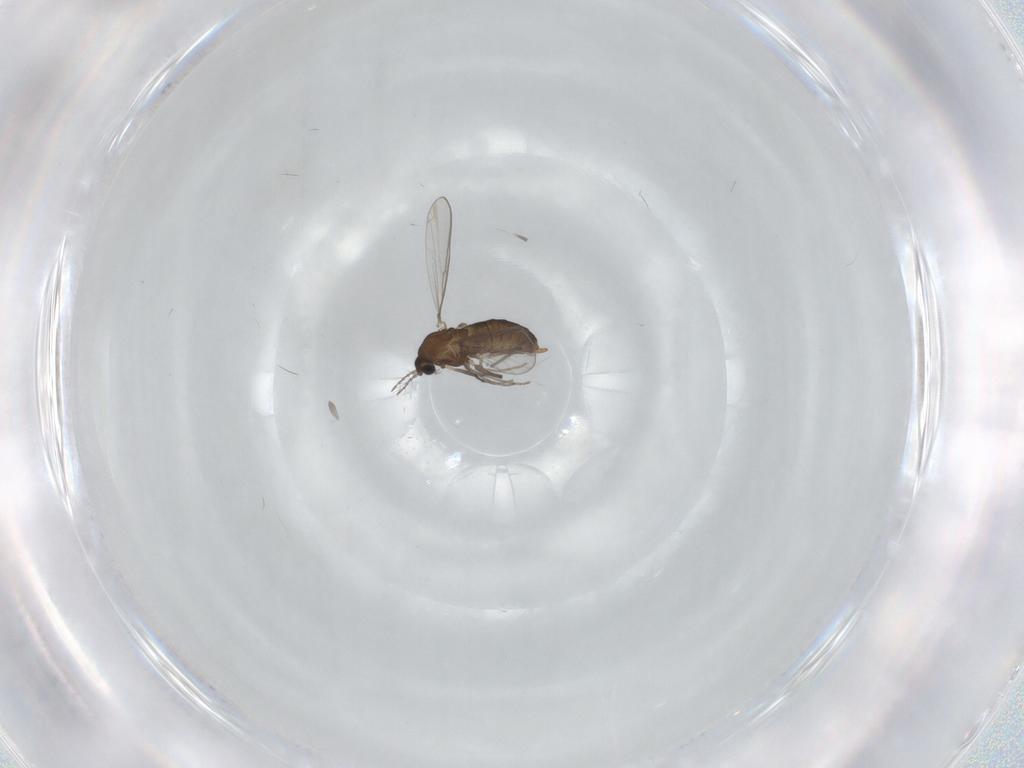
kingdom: Animalia
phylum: Arthropoda
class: Insecta
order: Diptera
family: Chironomidae
